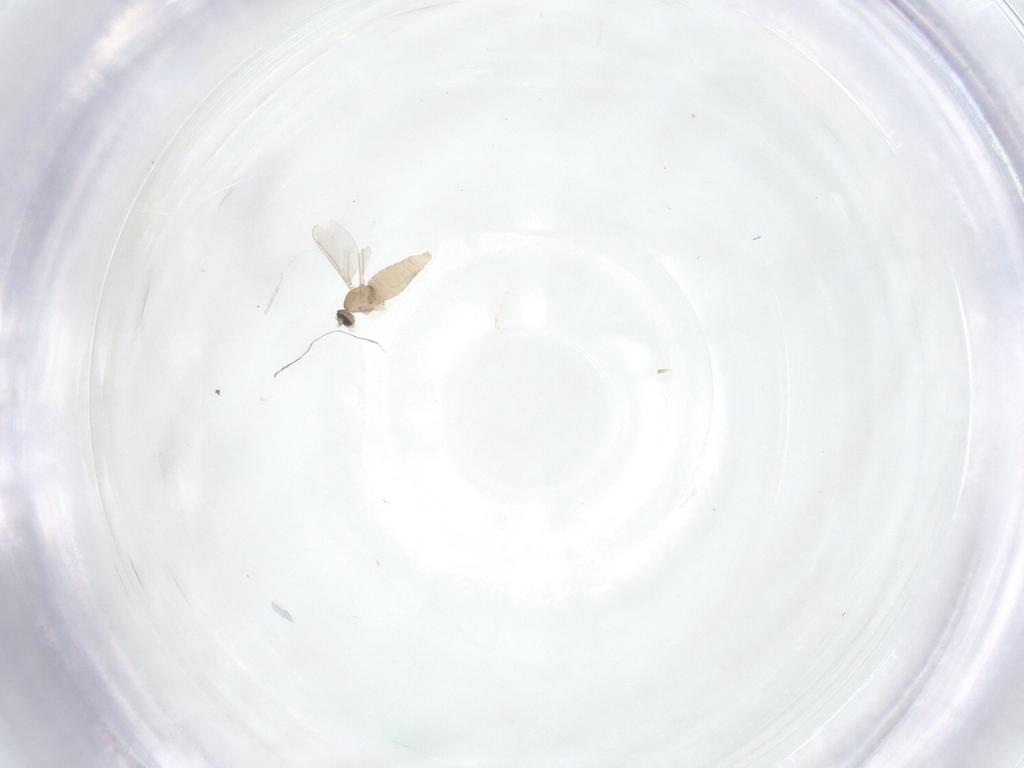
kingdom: Animalia
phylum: Arthropoda
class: Insecta
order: Diptera
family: Cecidomyiidae
